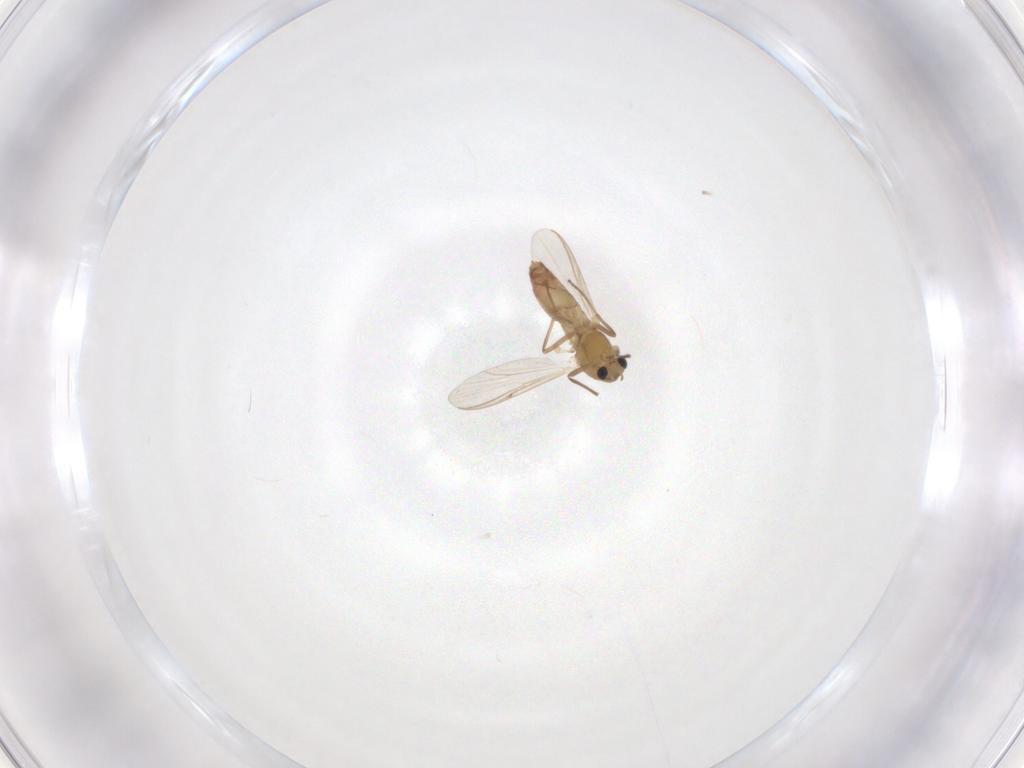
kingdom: Animalia
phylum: Arthropoda
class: Insecta
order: Diptera
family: Chironomidae
